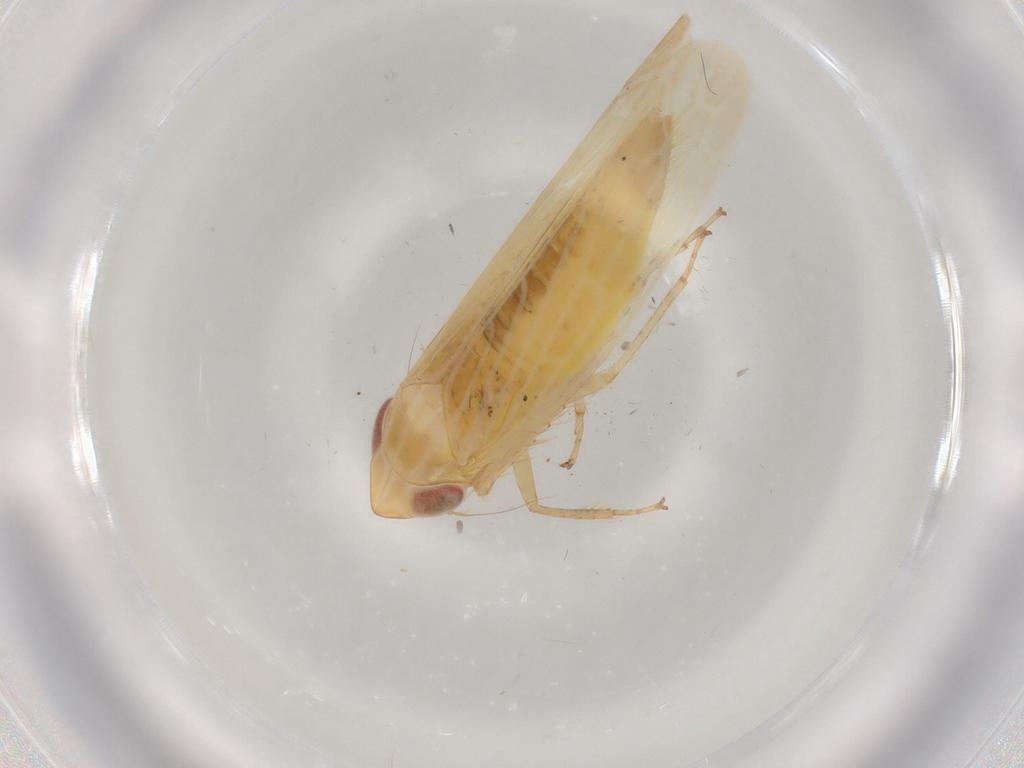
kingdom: Animalia
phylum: Arthropoda
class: Insecta
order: Hemiptera
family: Cicadellidae
